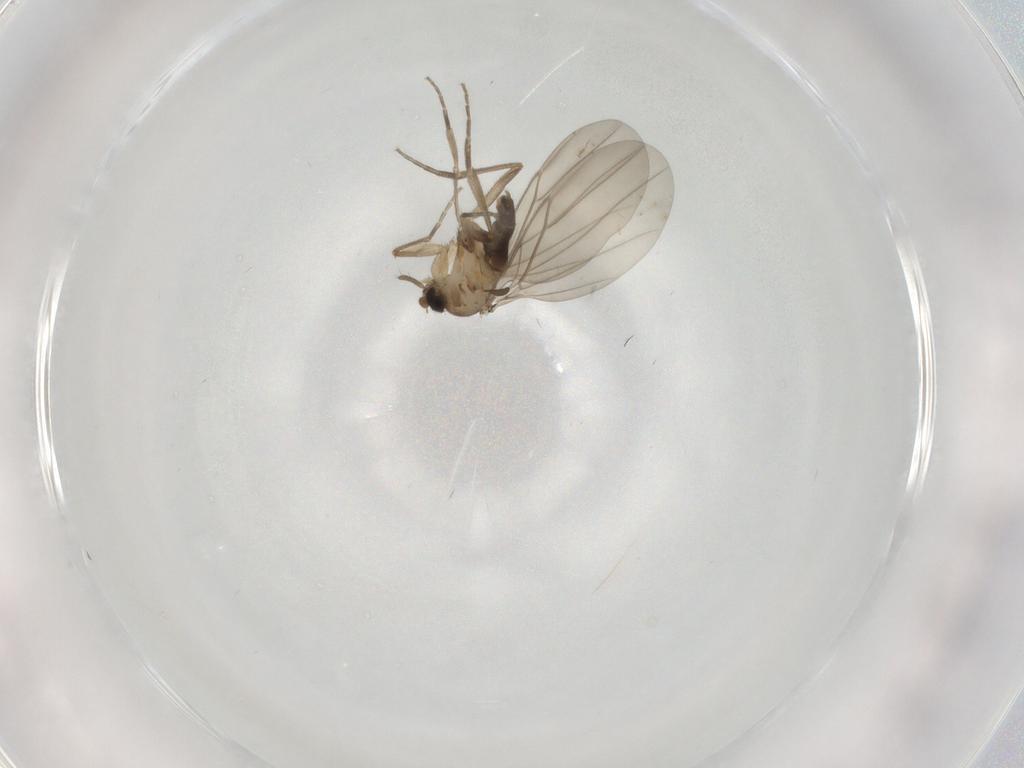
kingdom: Animalia
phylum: Arthropoda
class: Insecta
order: Diptera
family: Phoridae
